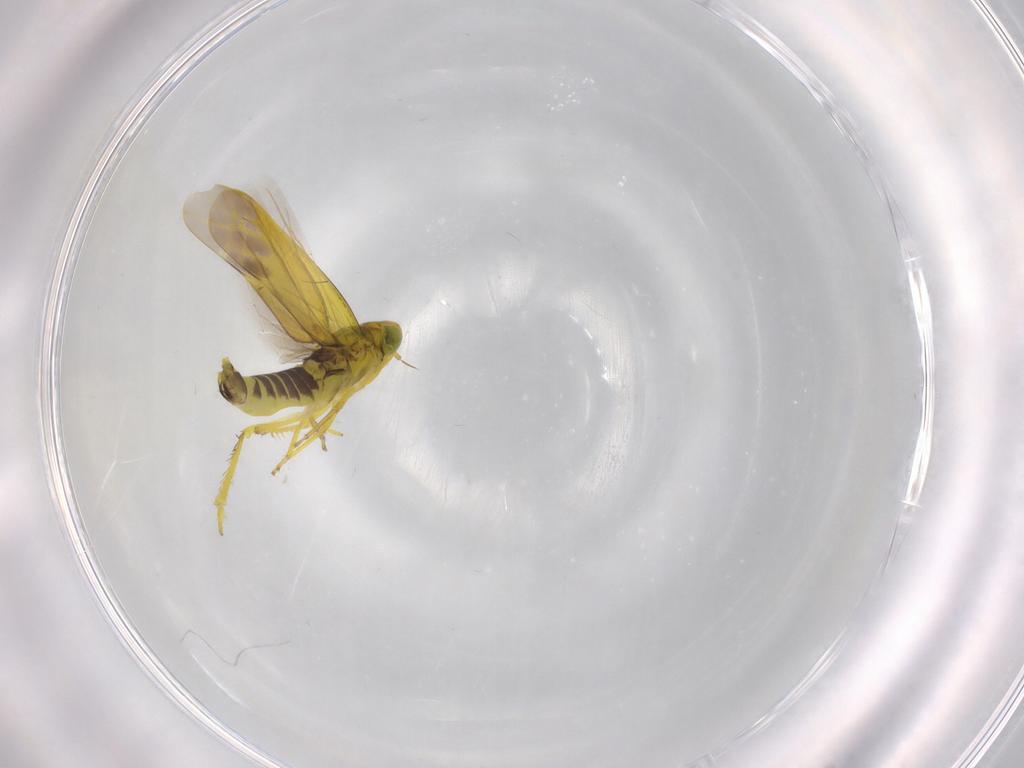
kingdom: Animalia
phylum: Arthropoda
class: Insecta
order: Hemiptera
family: Cicadellidae
